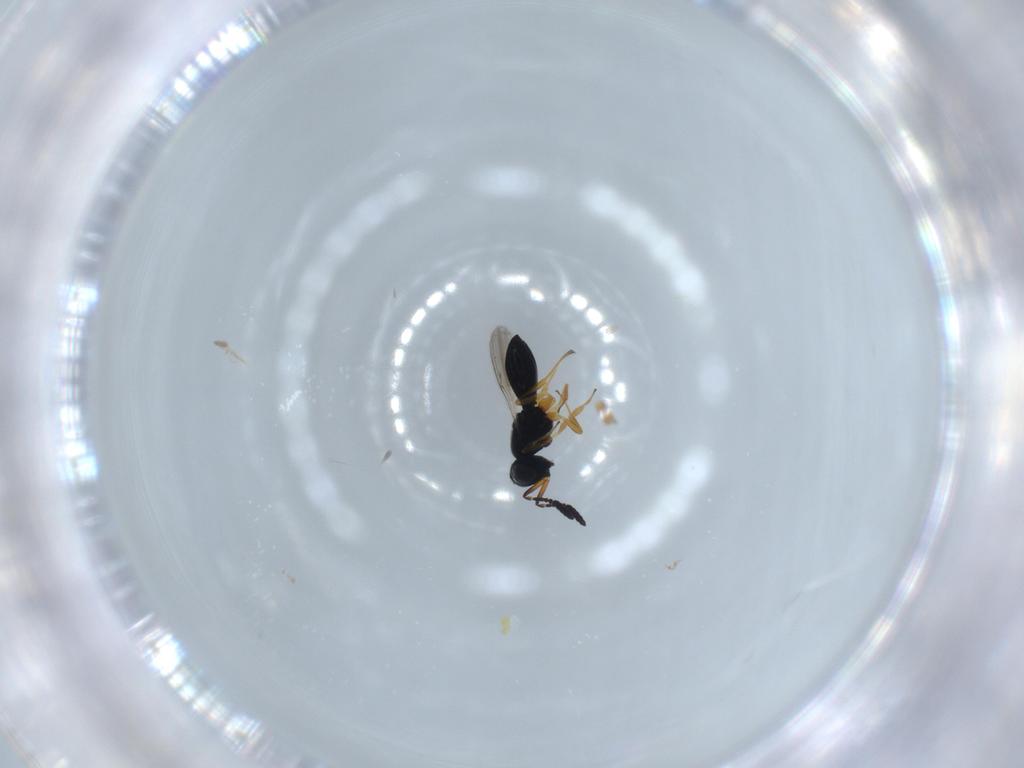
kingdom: Animalia
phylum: Arthropoda
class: Insecta
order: Hymenoptera
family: Scelionidae
